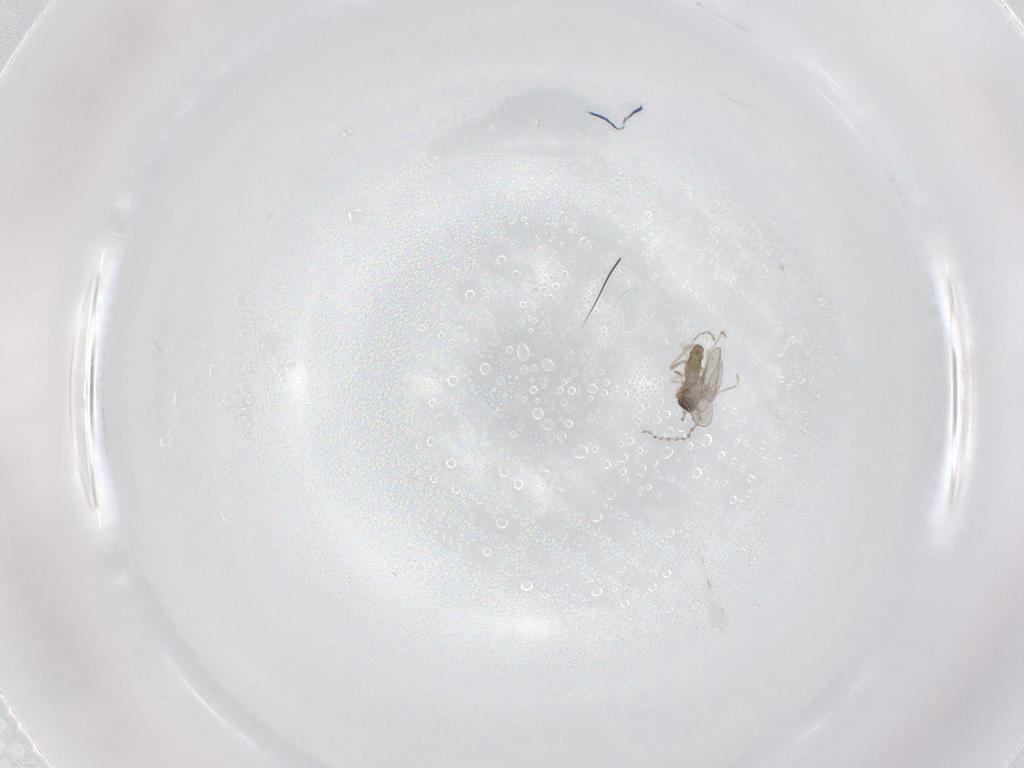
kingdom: Animalia
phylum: Arthropoda
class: Insecta
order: Diptera
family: Cecidomyiidae
